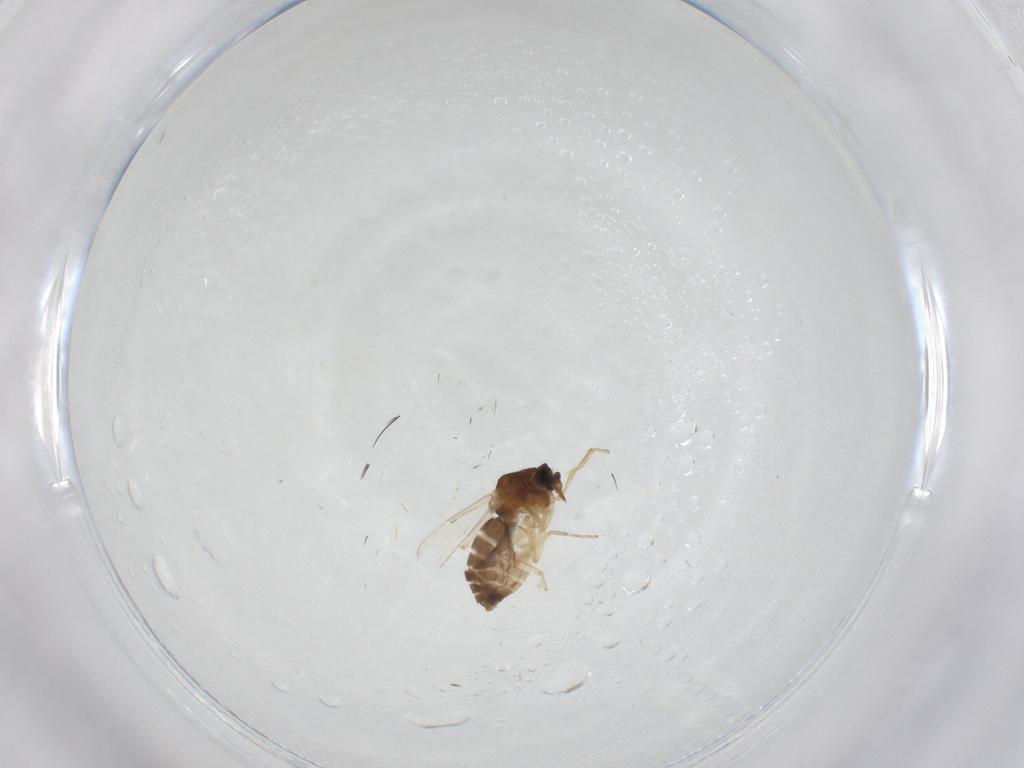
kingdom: Animalia
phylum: Arthropoda
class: Insecta
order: Diptera
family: Ceratopogonidae
